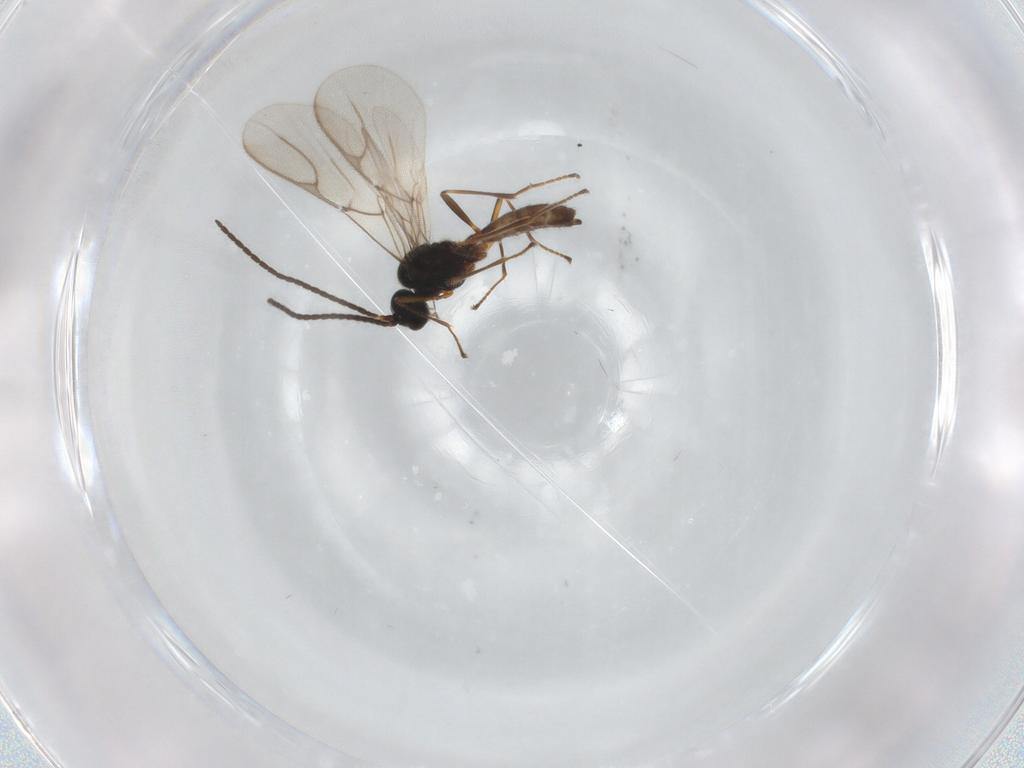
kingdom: Animalia
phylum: Arthropoda
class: Insecta
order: Hymenoptera
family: Braconidae
